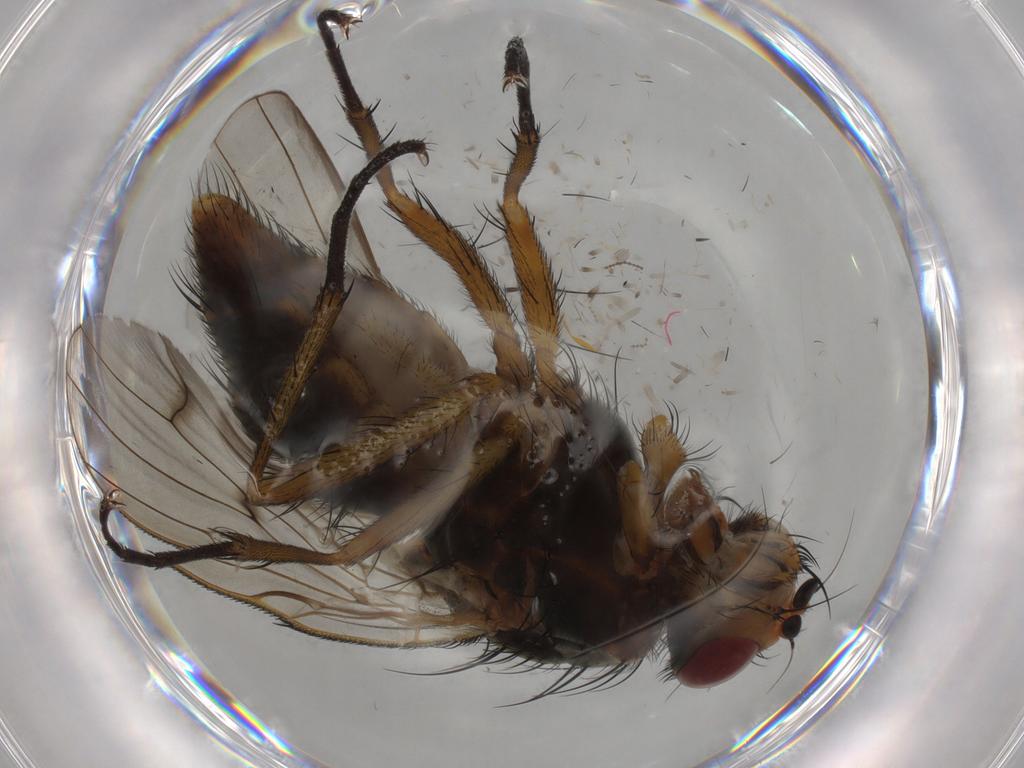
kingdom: Animalia
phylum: Arthropoda
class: Insecta
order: Diptera
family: Anthomyiidae
